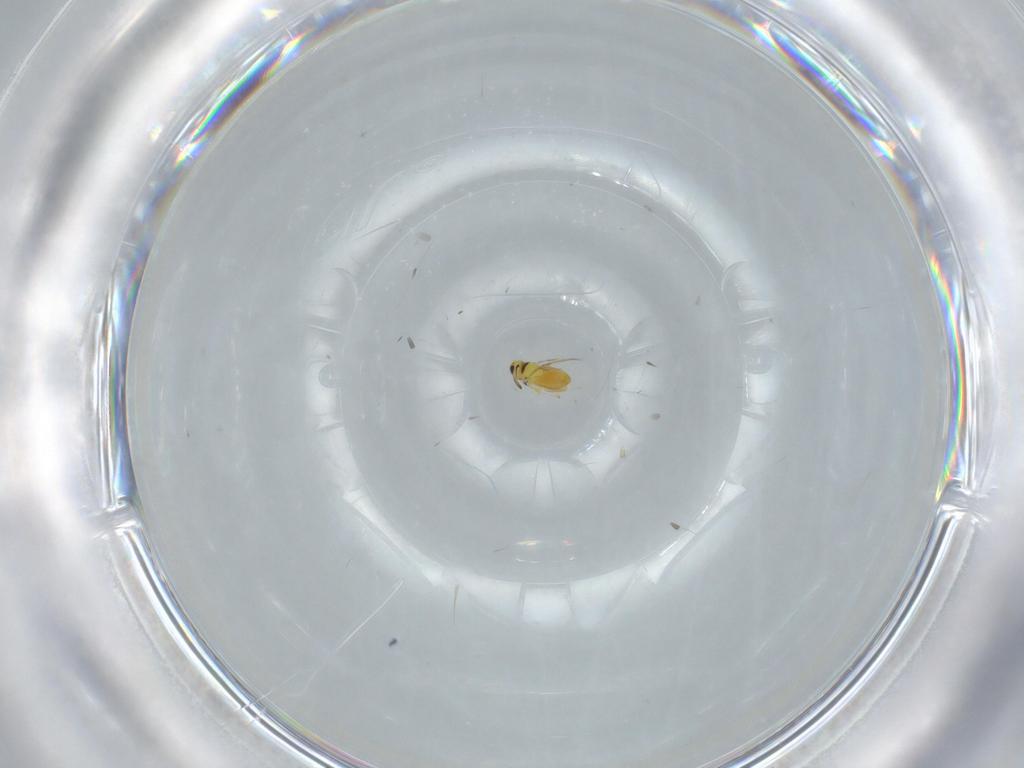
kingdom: Animalia
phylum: Arthropoda
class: Insecta
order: Hymenoptera
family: Signiphoridae
